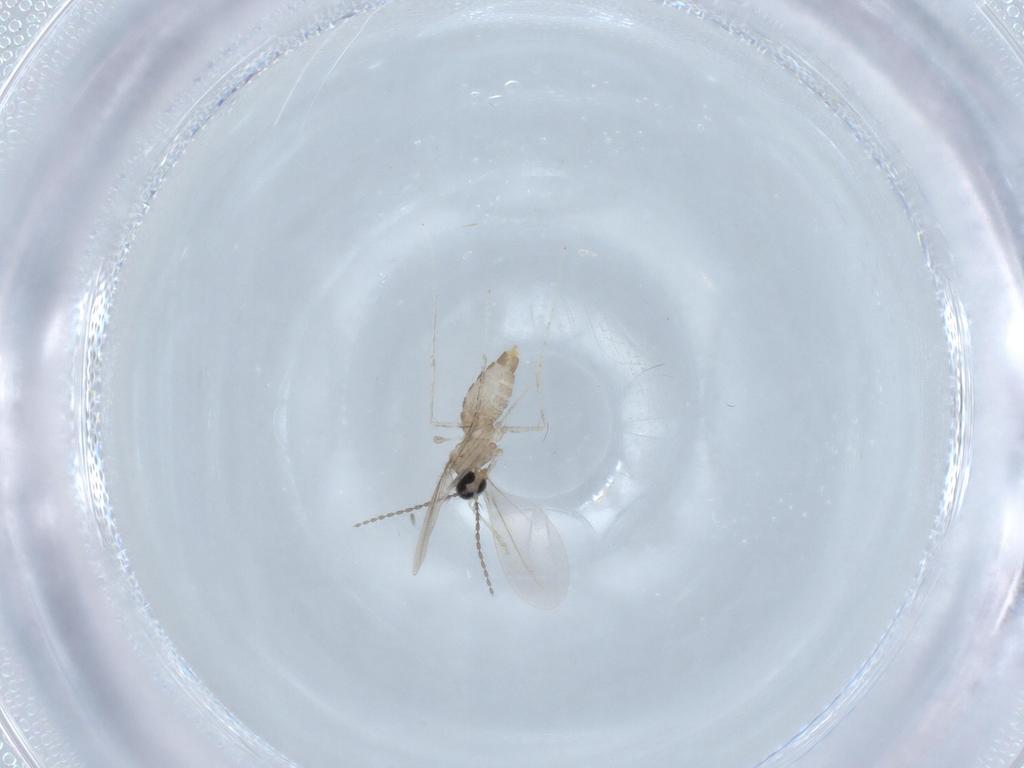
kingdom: Animalia
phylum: Arthropoda
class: Insecta
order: Diptera
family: Cecidomyiidae
